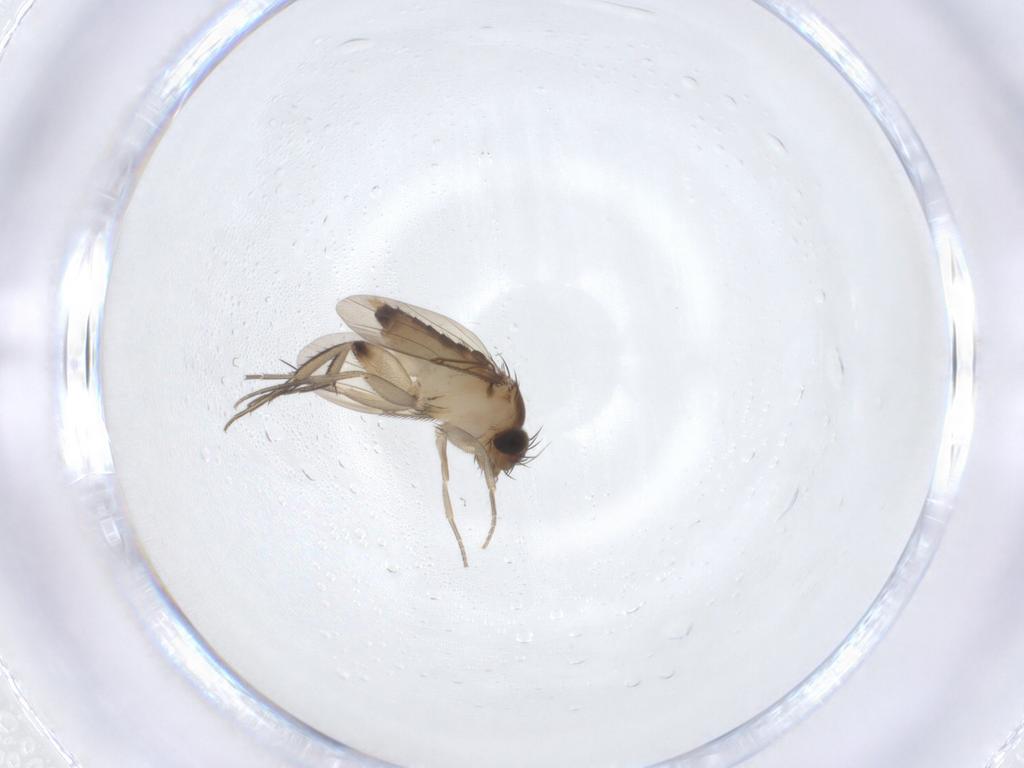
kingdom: Animalia
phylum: Arthropoda
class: Insecta
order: Diptera
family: Phoridae
